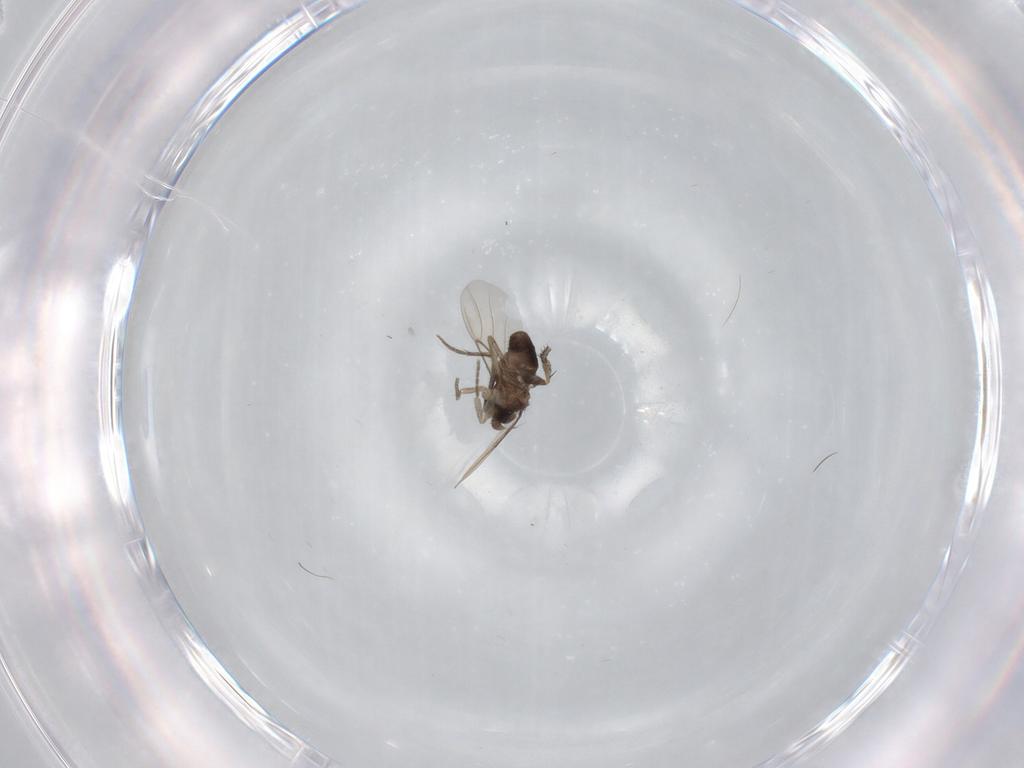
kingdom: Animalia
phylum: Arthropoda
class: Insecta
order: Diptera
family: Phoridae
